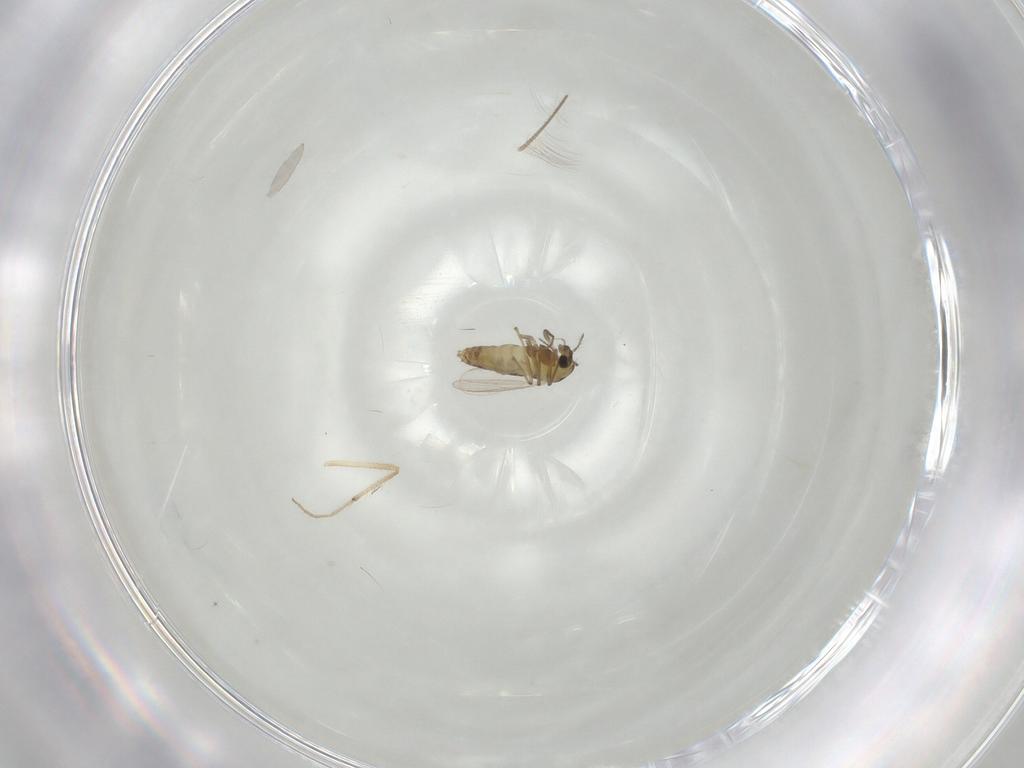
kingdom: Animalia
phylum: Arthropoda
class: Insecta
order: Diptera
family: Chironomidae
